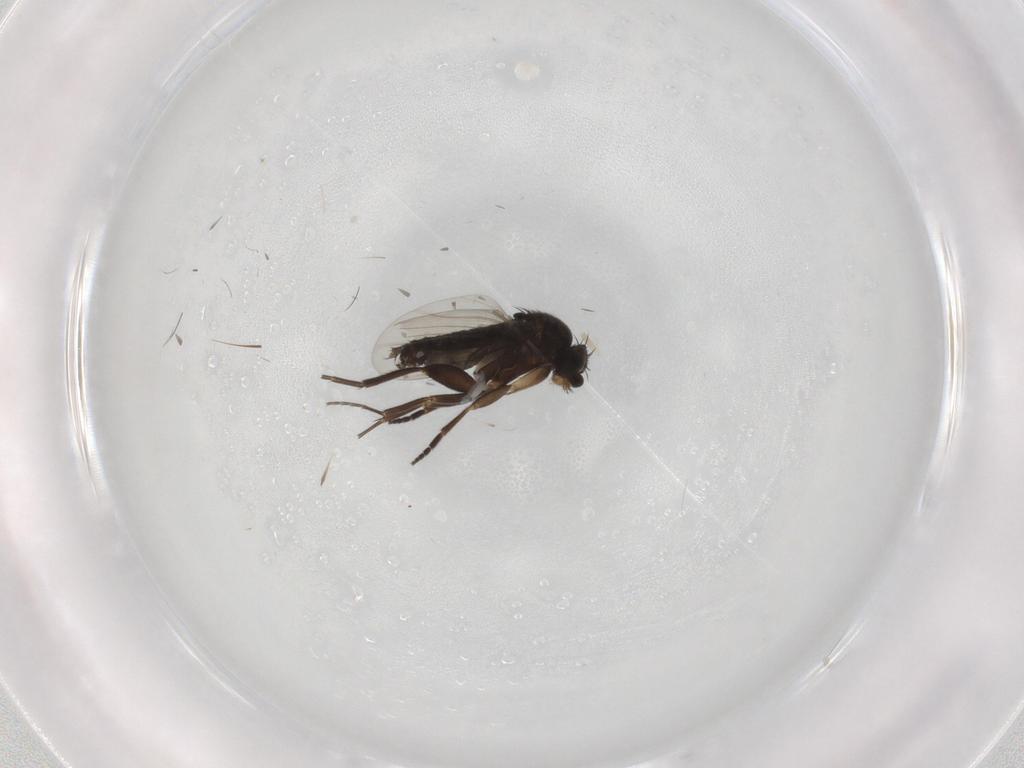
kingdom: Animalia
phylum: Arthropoda
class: Insecta
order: Diptera
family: Phoridae
